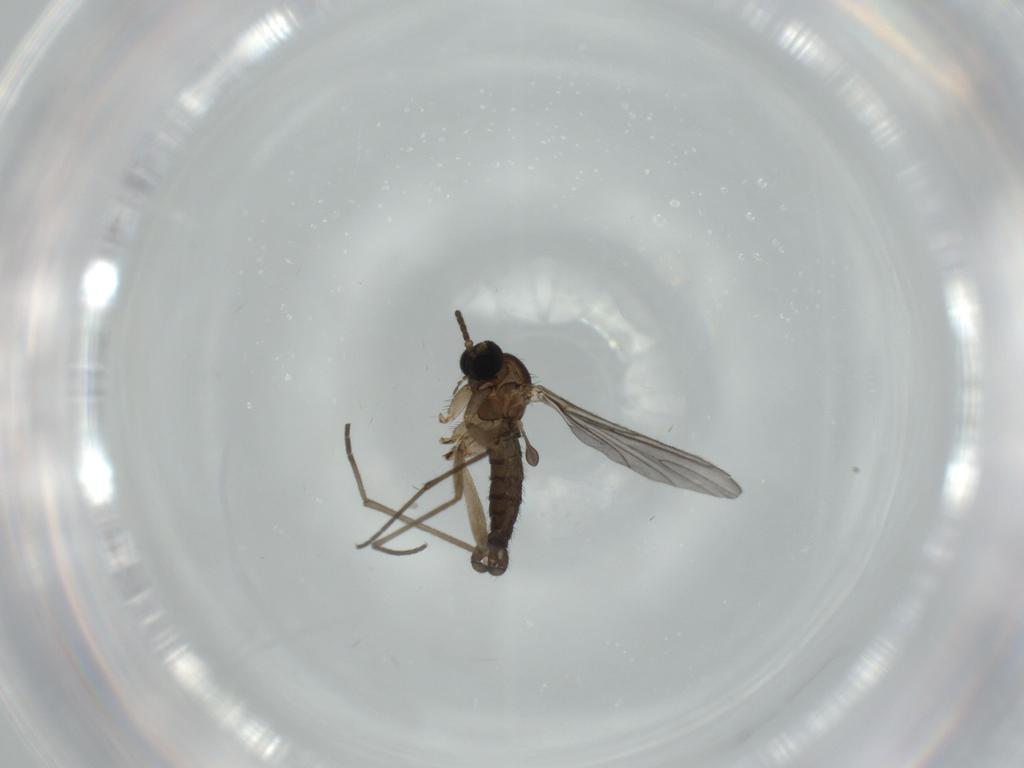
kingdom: Animalia
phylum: Arthropoda
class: Insecta
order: Diptera
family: Sciaridae
